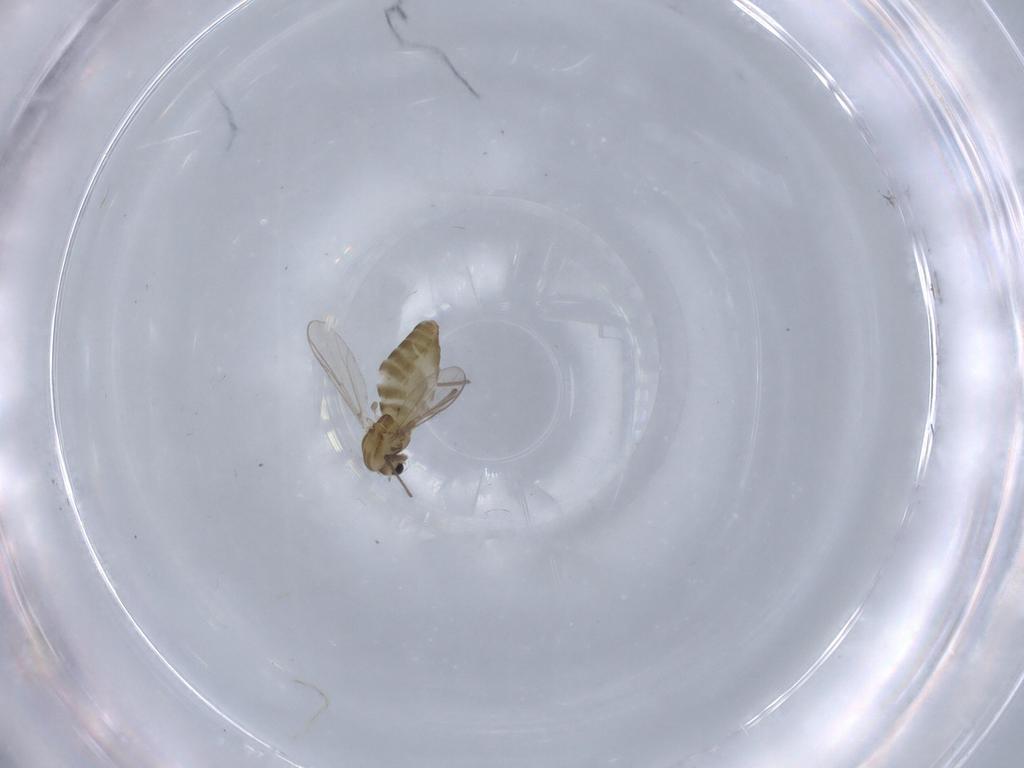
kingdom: Animalia
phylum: Arthropoda
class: Insecta
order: Diptera
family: Chironomidae
